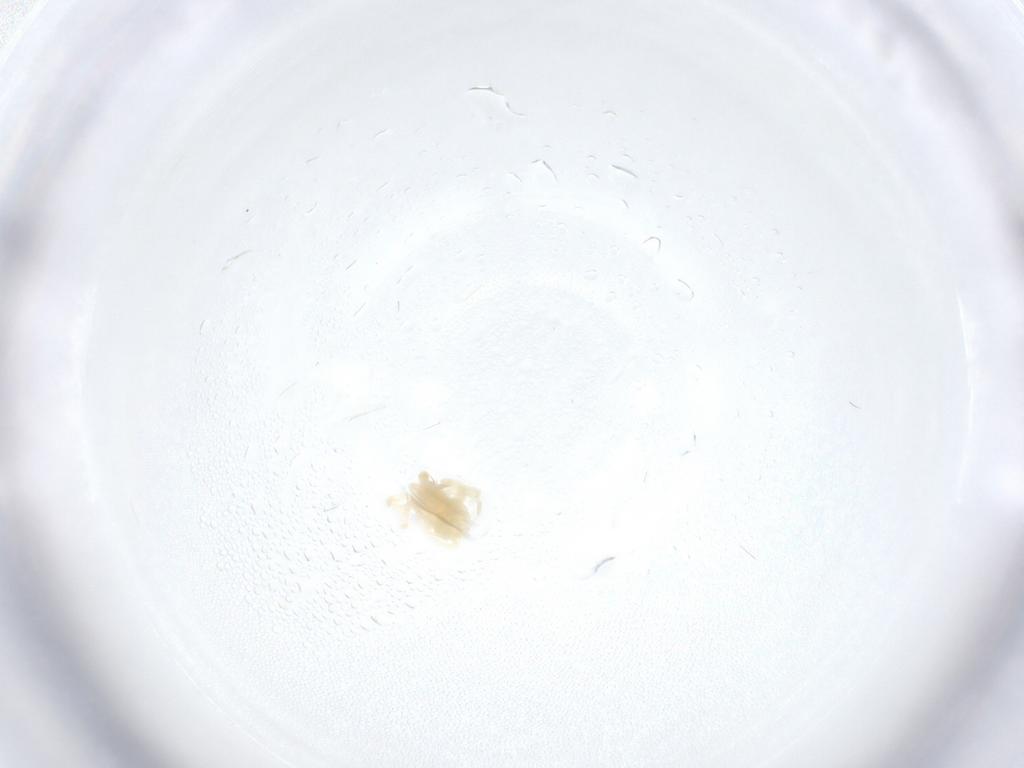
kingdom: Animalia
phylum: Arthropoda
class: Arachnida
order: Trombidiformes
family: Anystidae
